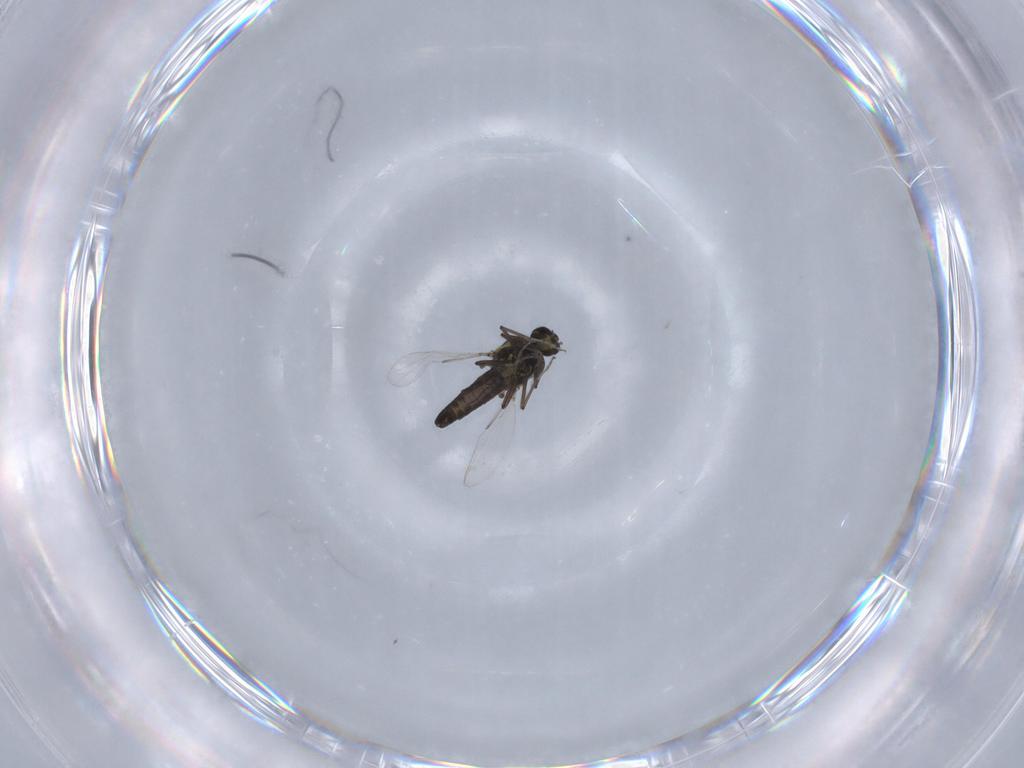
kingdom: Animalia
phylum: Arthropoda
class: Insecta
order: Diptera
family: Ceratopogonidae
